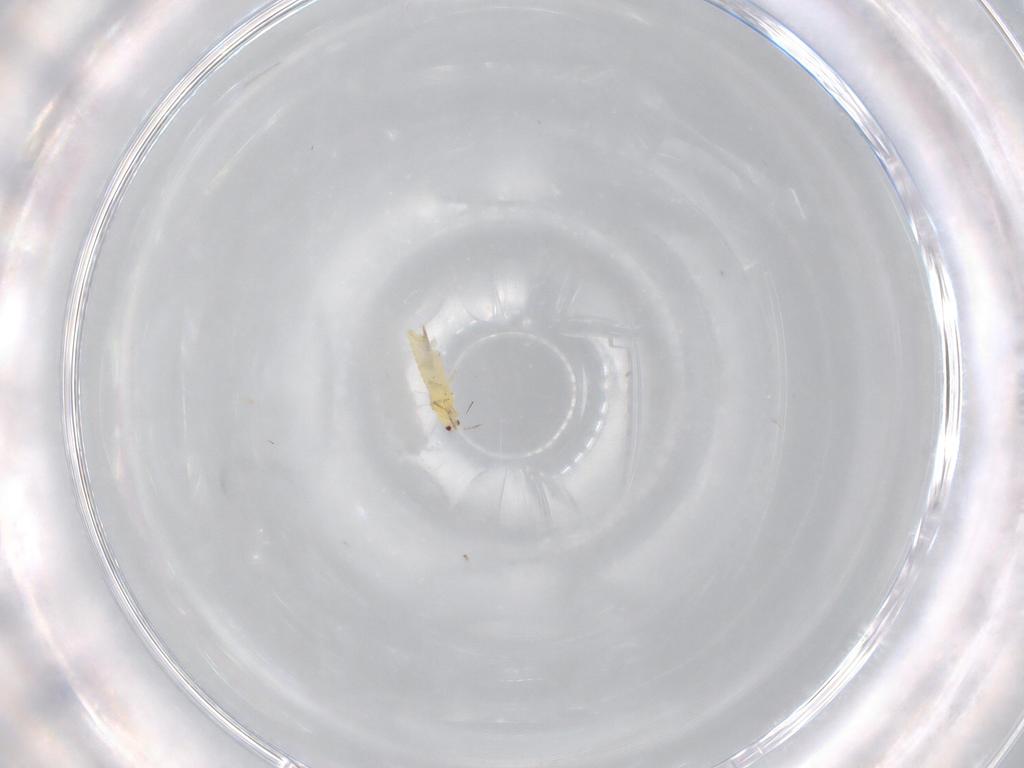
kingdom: Animalia
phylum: Arthropoda
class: Insecta
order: Thysanoptera
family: Thripidae
